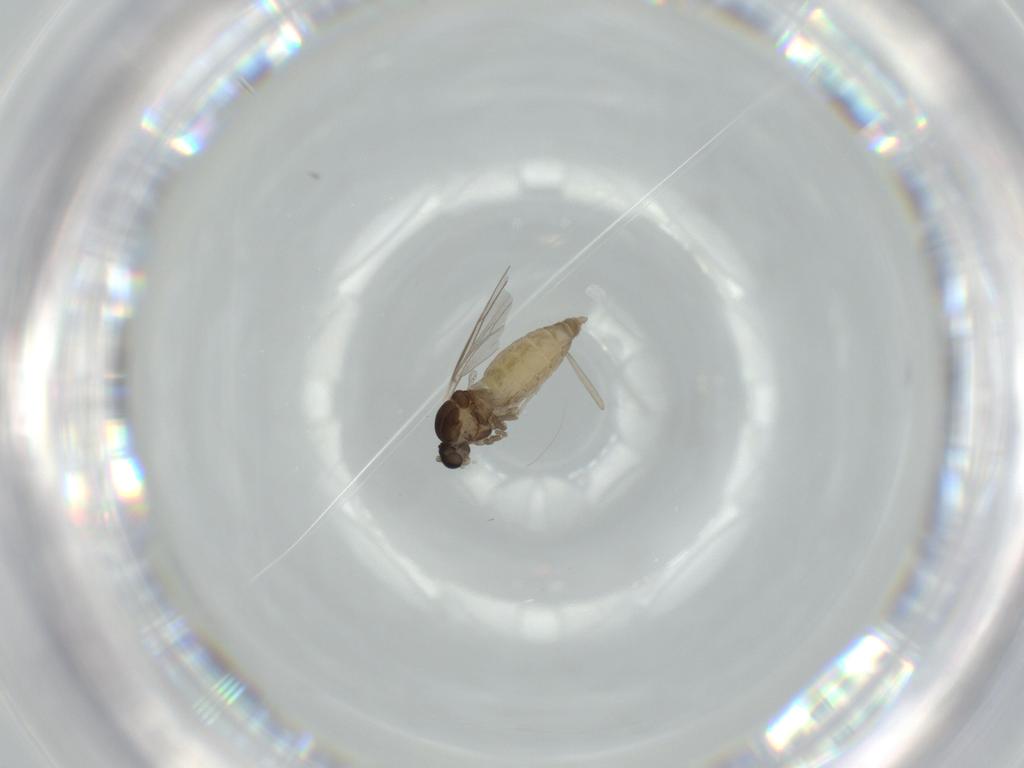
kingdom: Animalia
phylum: Arthropoda
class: Insecta
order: Diptera
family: Cecidomyiidae
